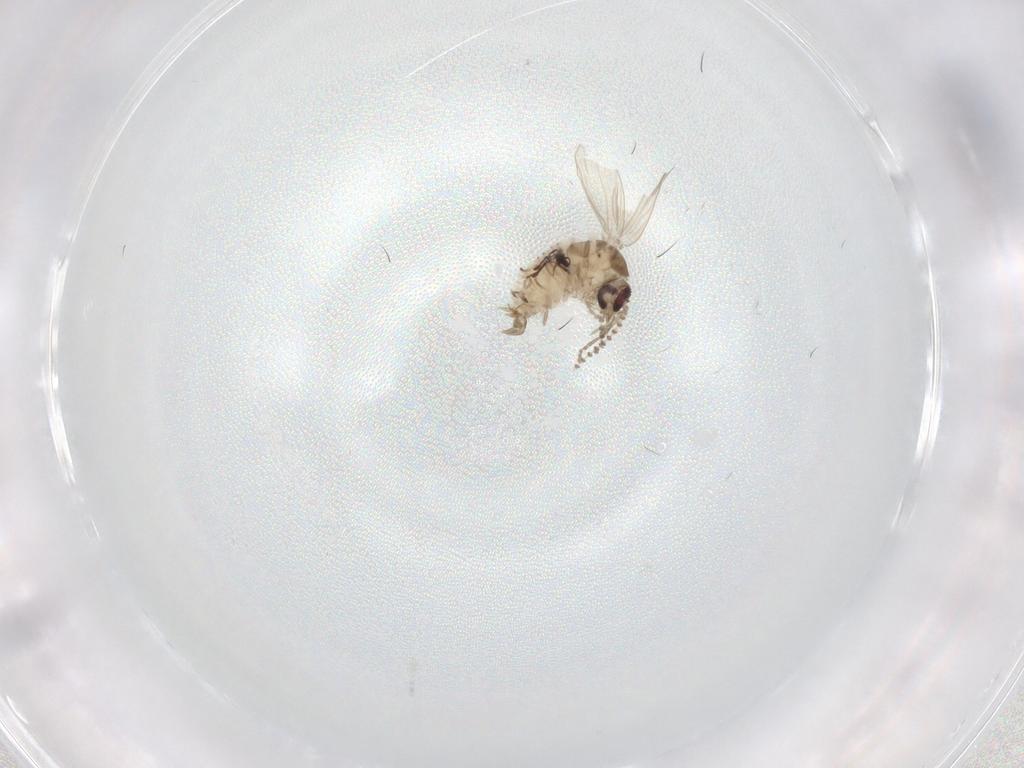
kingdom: Animalia
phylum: Arthropoda
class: Insecta
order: Diptera
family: Psychodidae
